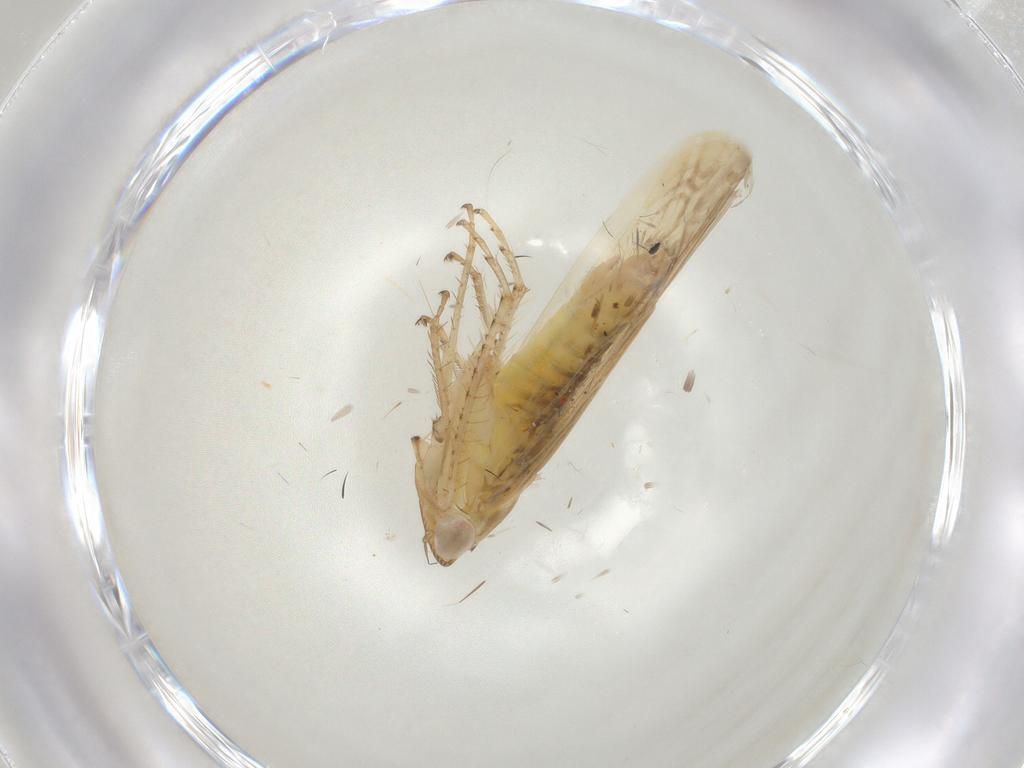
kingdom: Animalia
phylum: Arthropoda
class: Insecta
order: Hemiptera
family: Cicadellidae
